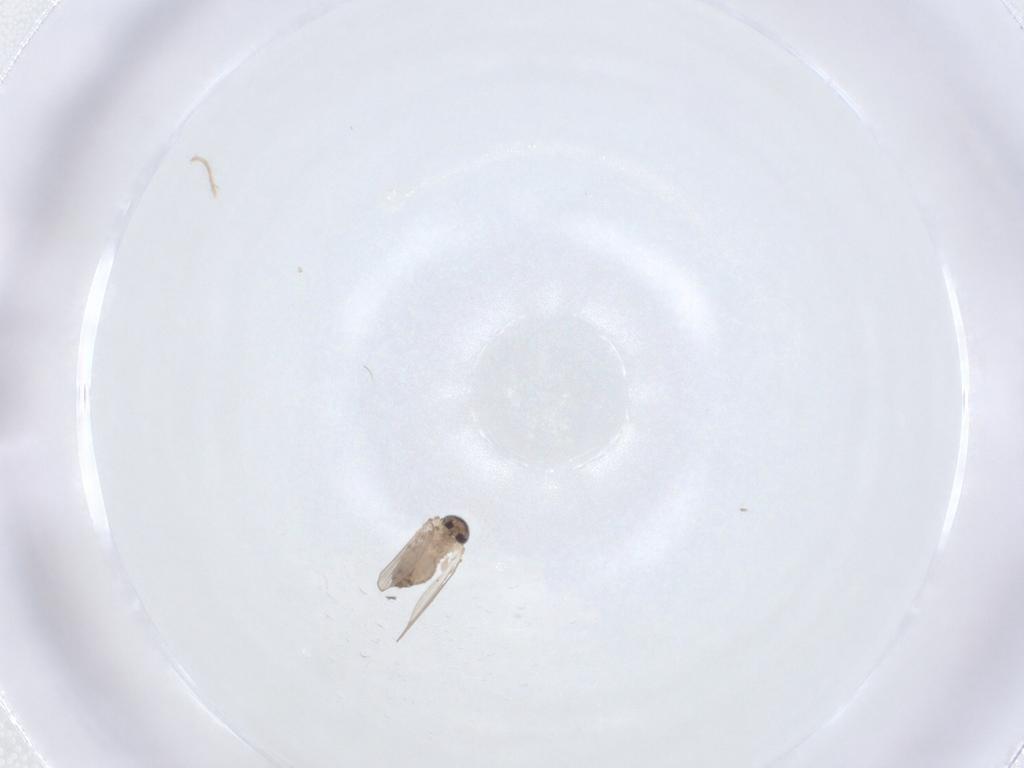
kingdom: Animalia
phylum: Arthropoda
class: Insecta
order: Diptera
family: Psychodidae
